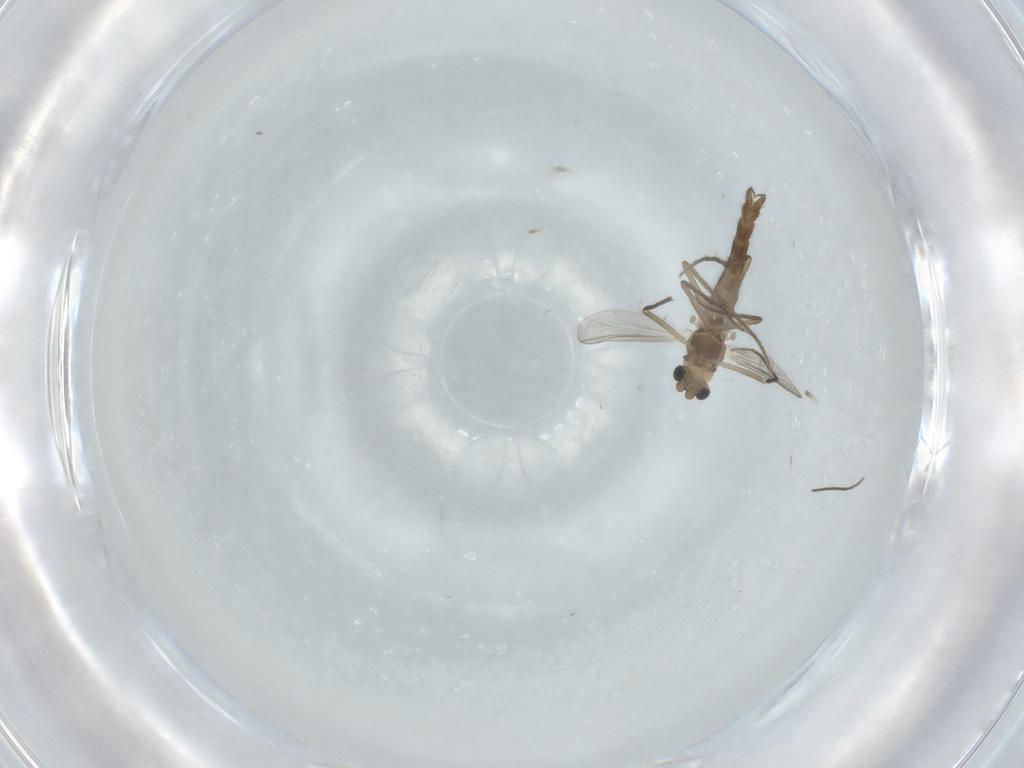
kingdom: Animalia
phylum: Arthropoda
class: Insecta
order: Diptera
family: Chironomidae
